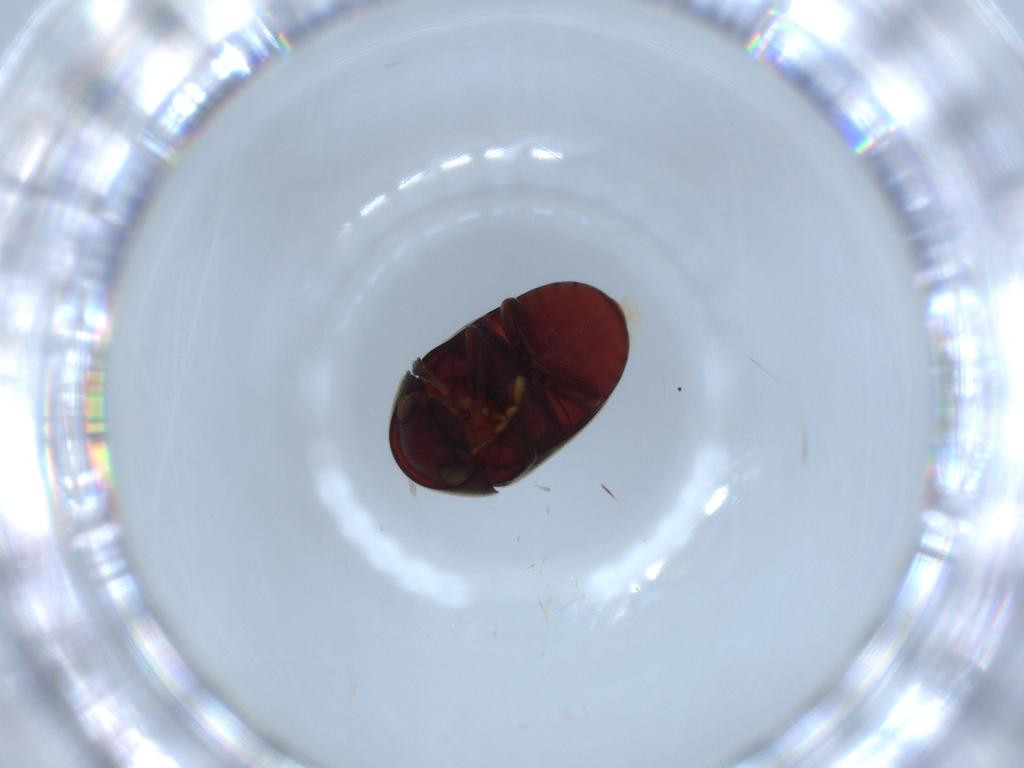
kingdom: Animalia
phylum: Arthropoda
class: Insecta
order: Coleoptera
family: Ptinidae
